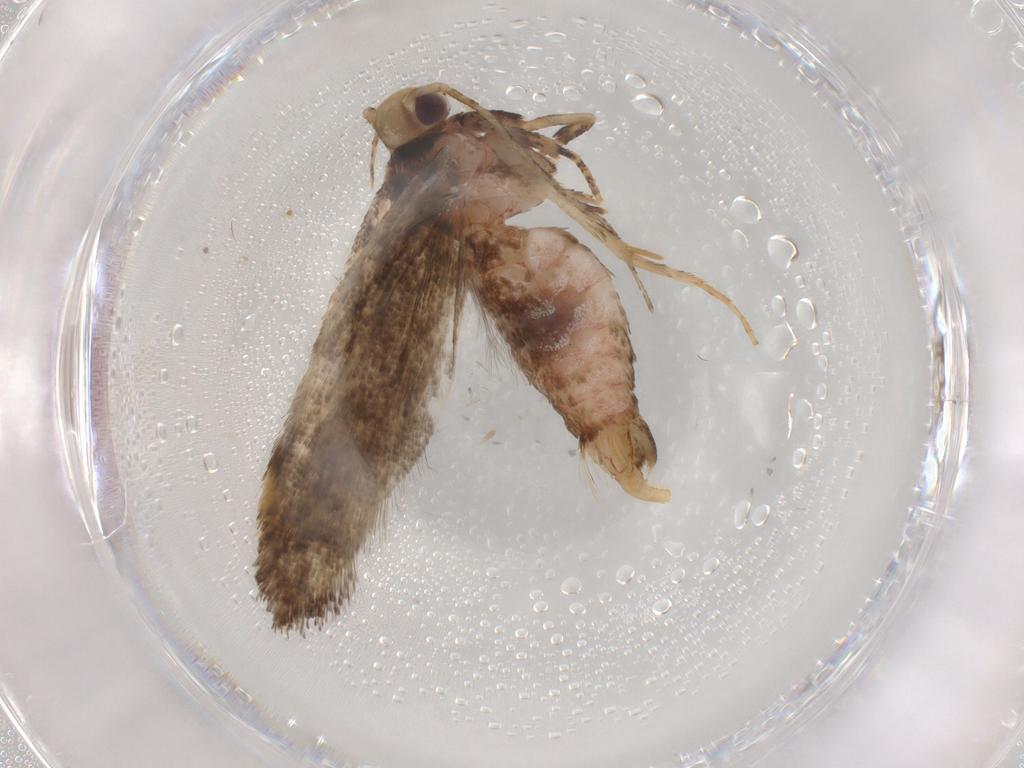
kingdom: Animalia
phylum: Arthropoda
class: Insecta
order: Lepidoptera
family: Gelechiidae
